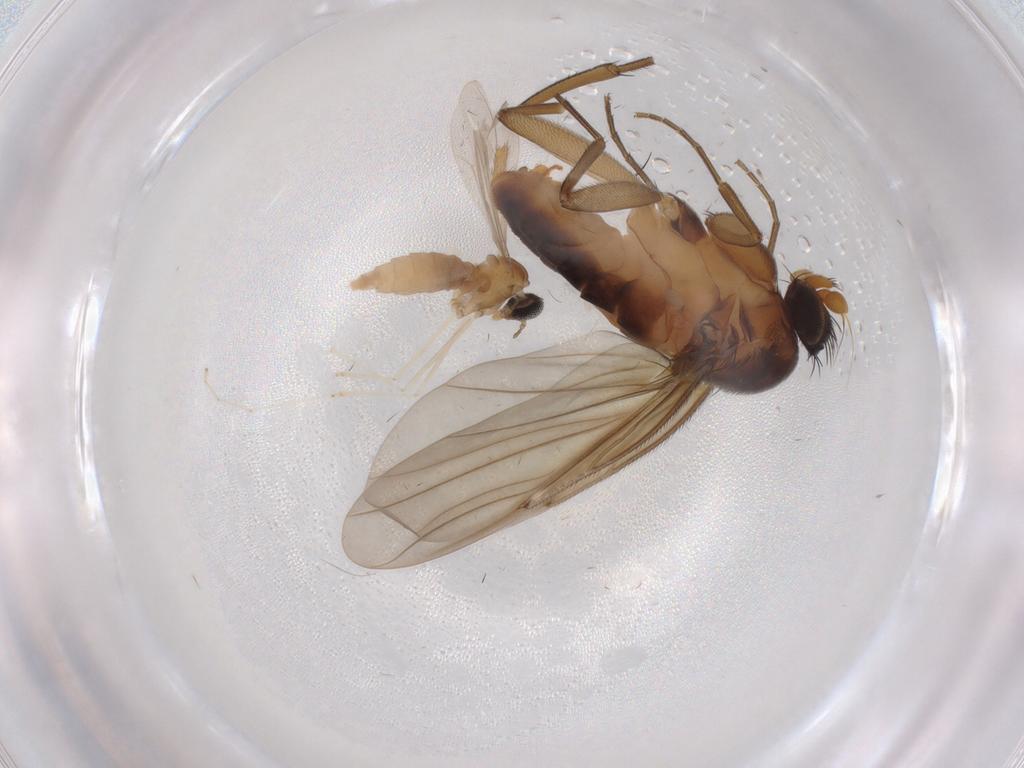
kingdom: Animalia
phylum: Arthropoda
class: Insecta
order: Diptera
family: Cecidomyiidae
